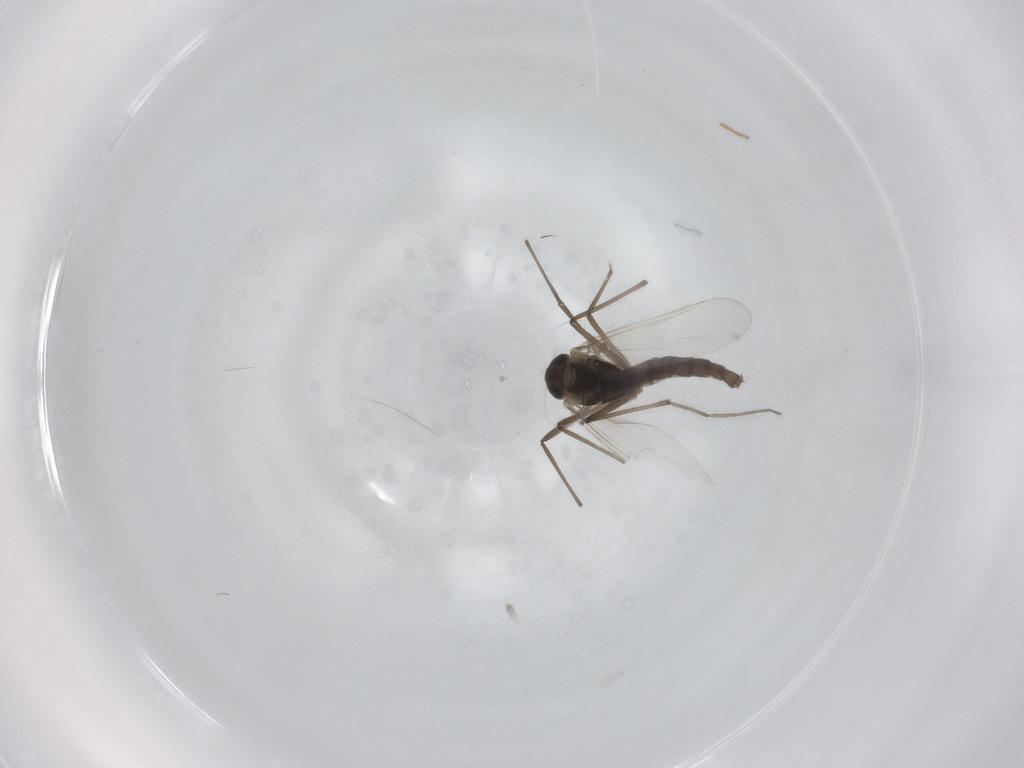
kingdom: Animalia
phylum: Arthropoda
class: Insecta
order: Diptera
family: Chironomidae
